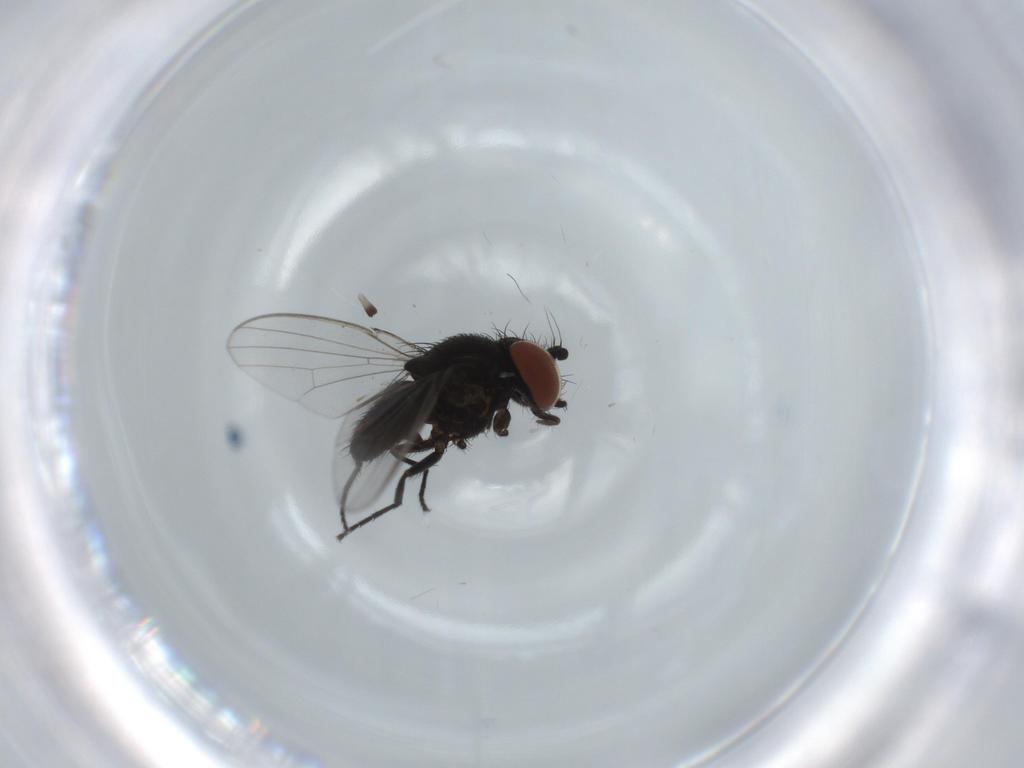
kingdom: Animalia
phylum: Arthropoda
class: Insecta
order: Diptera
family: Milichiidae
